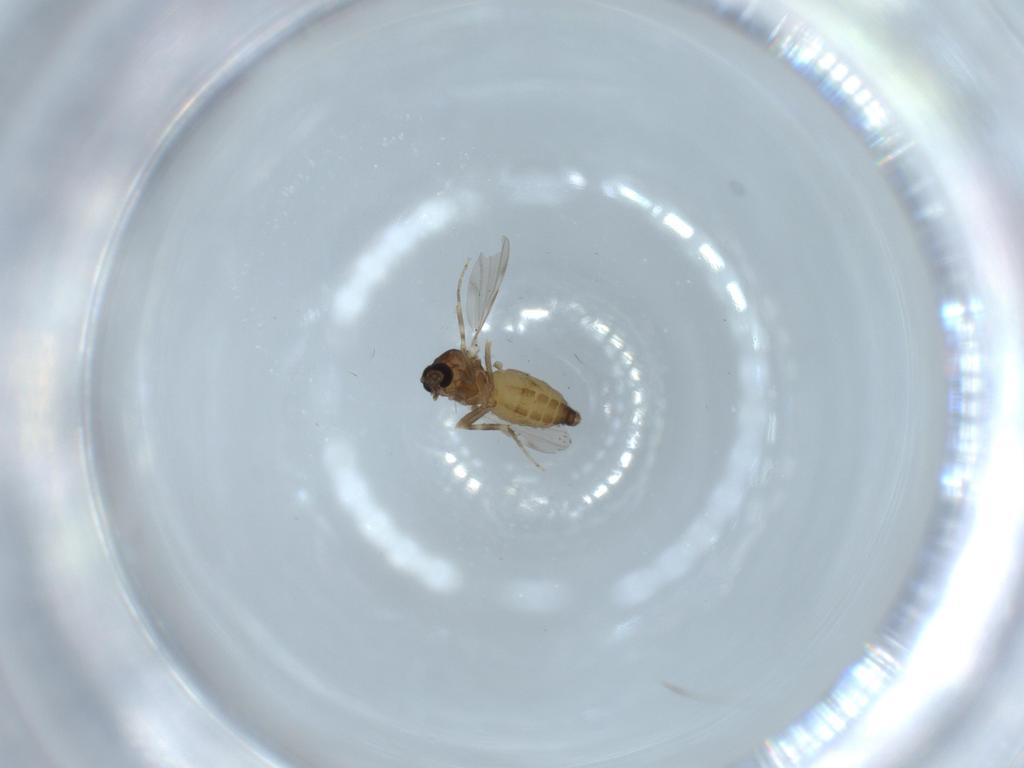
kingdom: Animalia
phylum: Arthropoda
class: Insecta
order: Diptera
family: Ceratopogonidae
